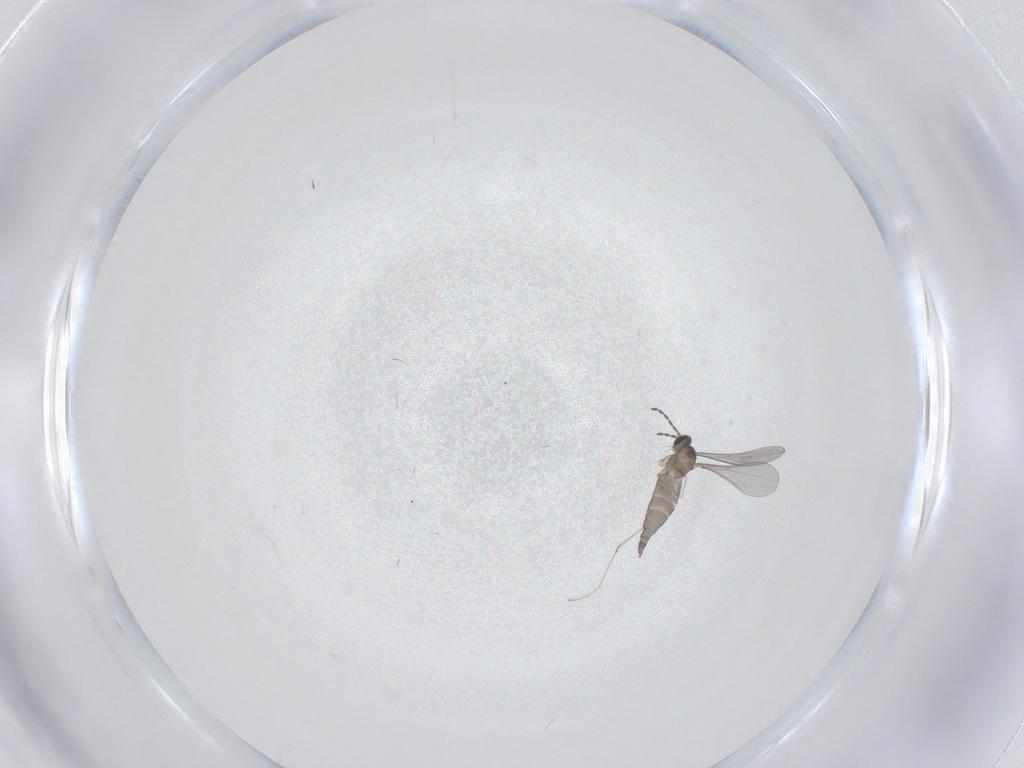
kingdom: Animalia
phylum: Arthropoda
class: Insecta
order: Diptera
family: Cecidomyiidae
